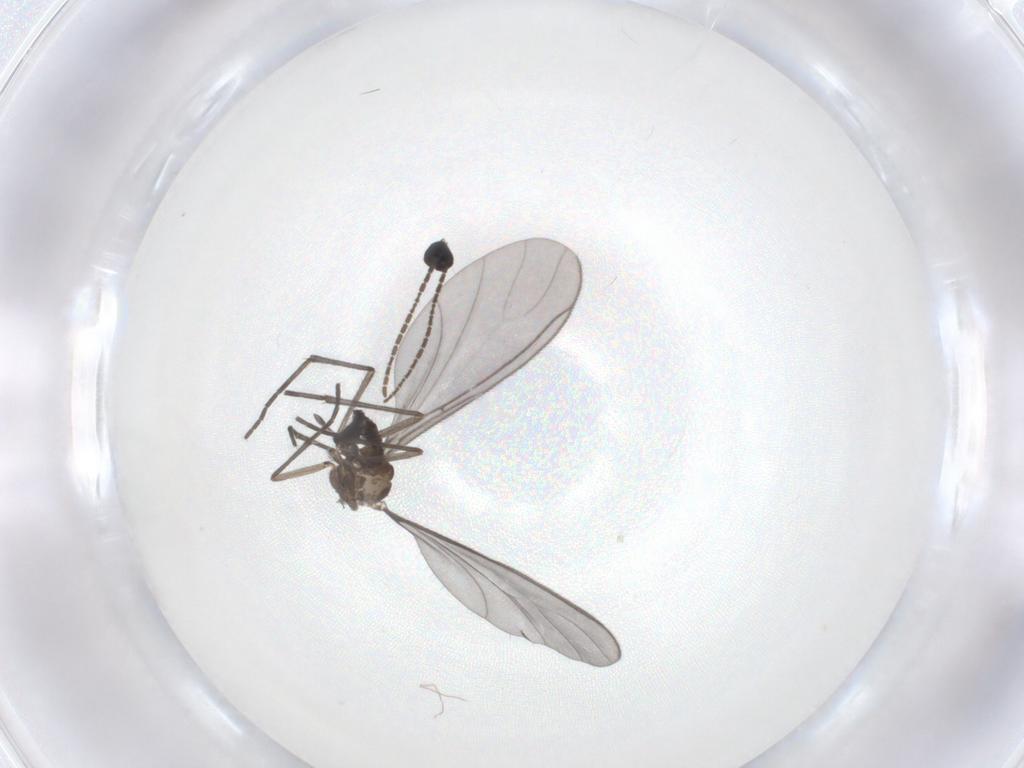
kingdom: Animalia
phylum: Arthropoda
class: Insecta
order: Diptera
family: Sciaridae
